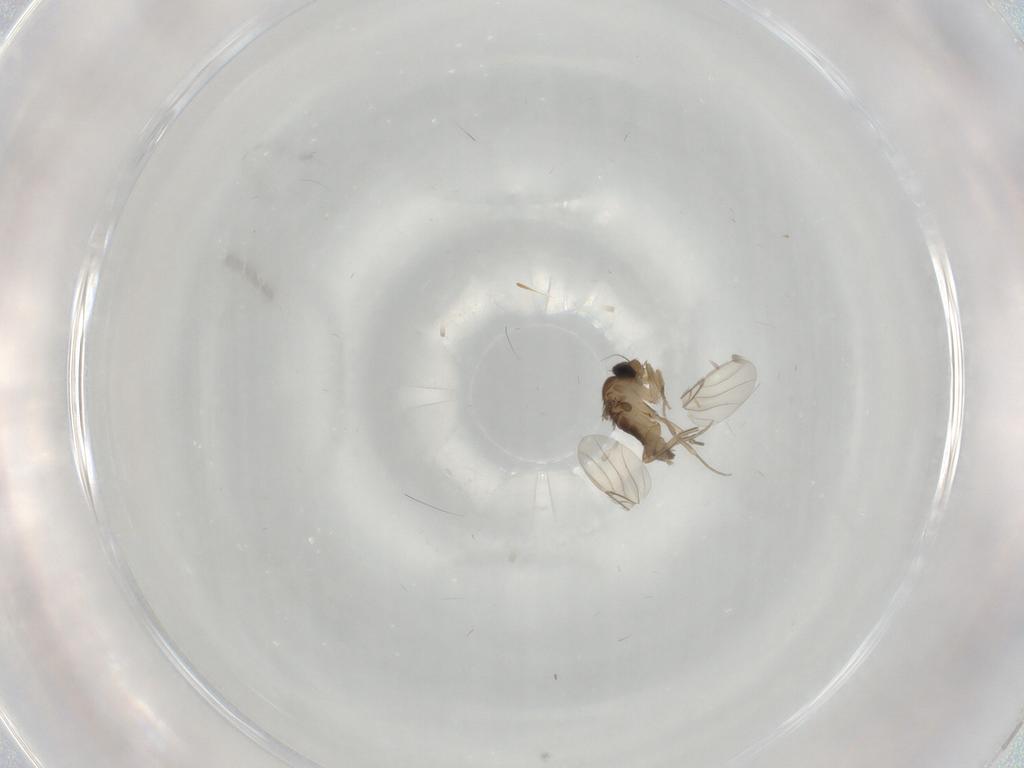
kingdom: Animalia
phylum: Arthropoda
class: Insecta
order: Diptera
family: Phoridae
